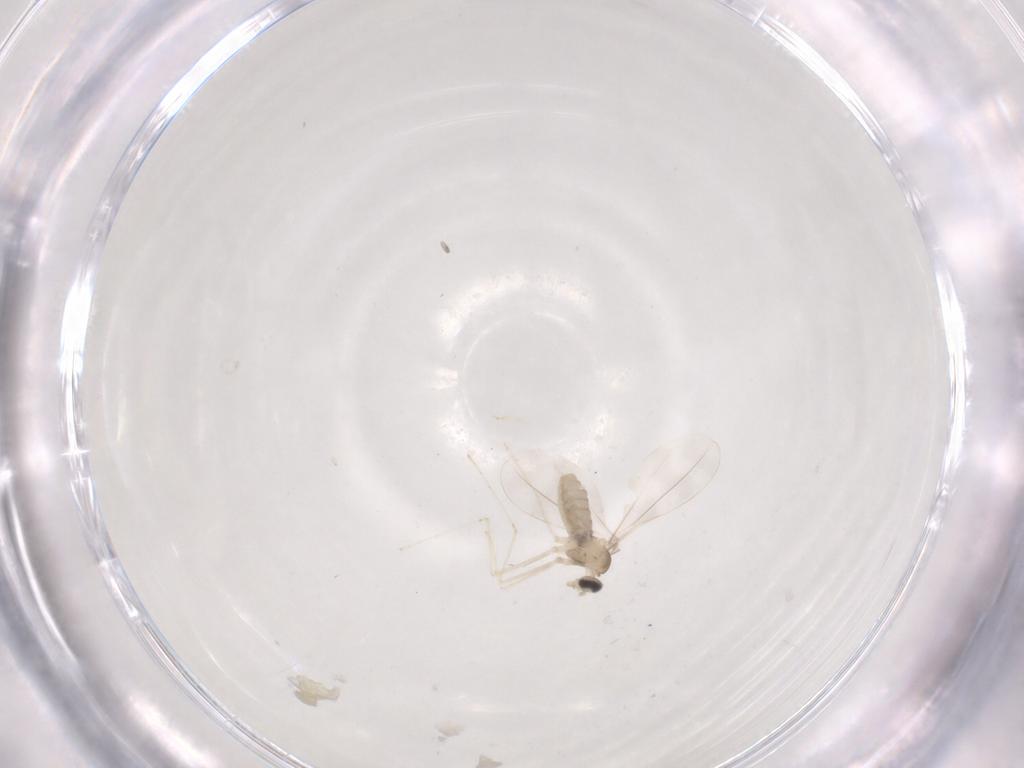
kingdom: Animalia
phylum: Arthropoda
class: Insecta
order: Diptera
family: Cecidomyiidae
